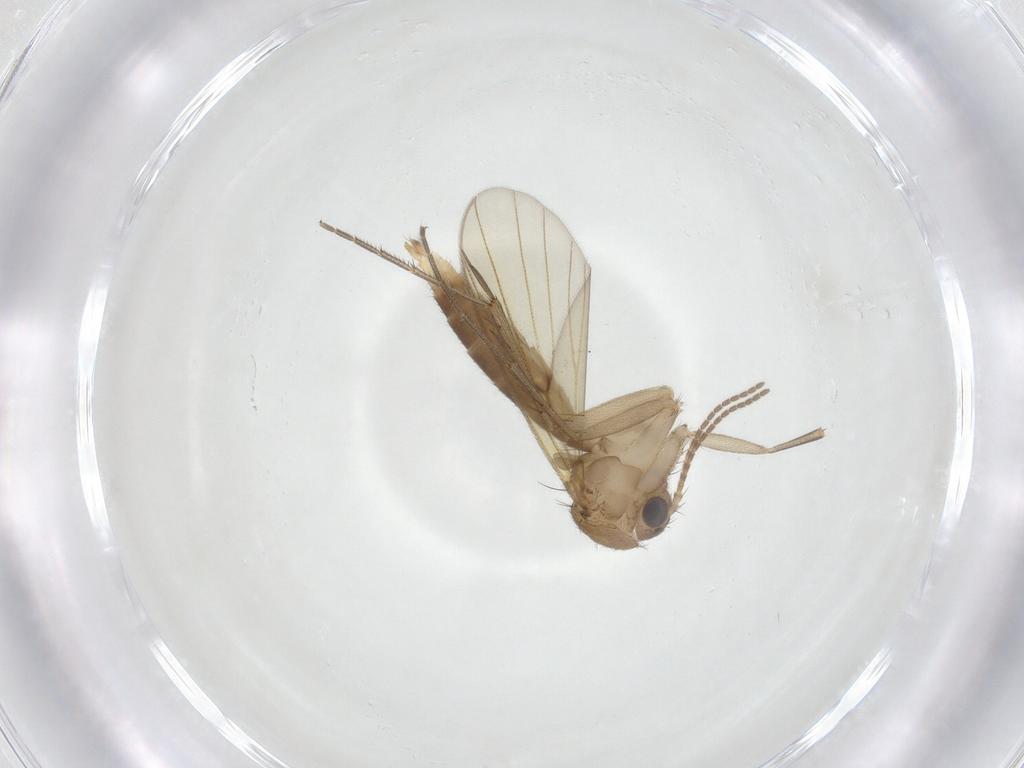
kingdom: Animalia
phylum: Arthropoda
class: Insecta
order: Diptera
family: Mycetophilidae
